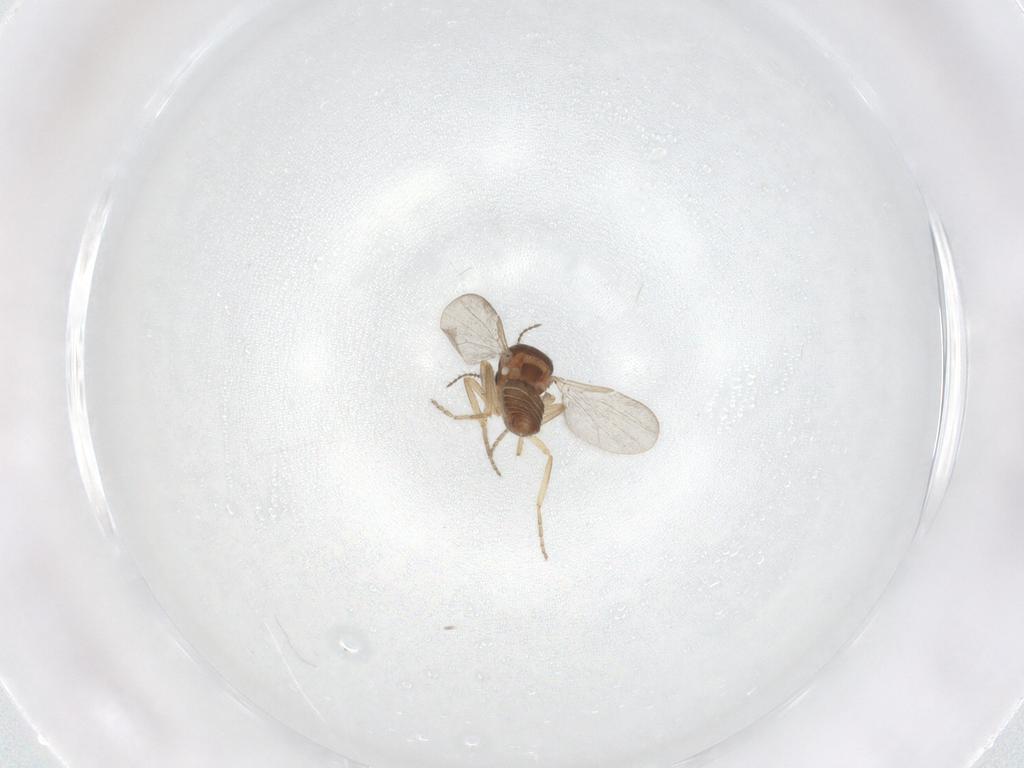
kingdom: Animalia
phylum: Arthropoda
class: Insecta
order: Diptera
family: Ceratopogonidae
